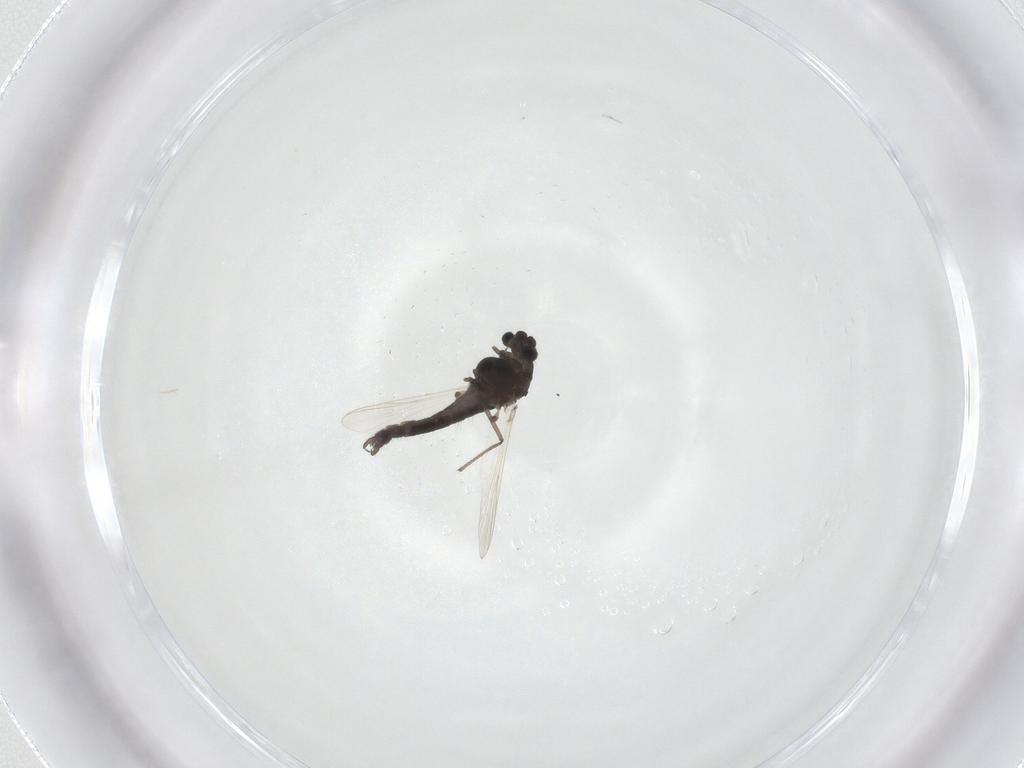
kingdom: Animalia
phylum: Arthropoda
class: Insecta
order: Diptera
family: Chironomidae
